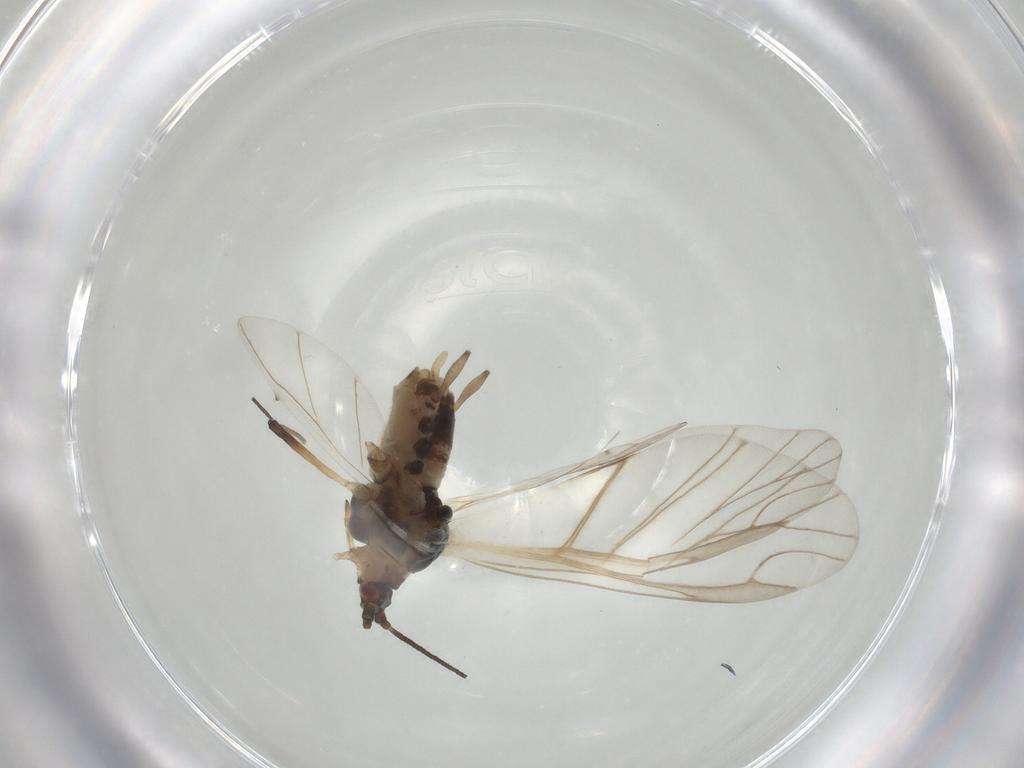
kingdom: Animalia
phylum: Arthropoda
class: Insecta
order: Hemiptera
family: Aphididae
